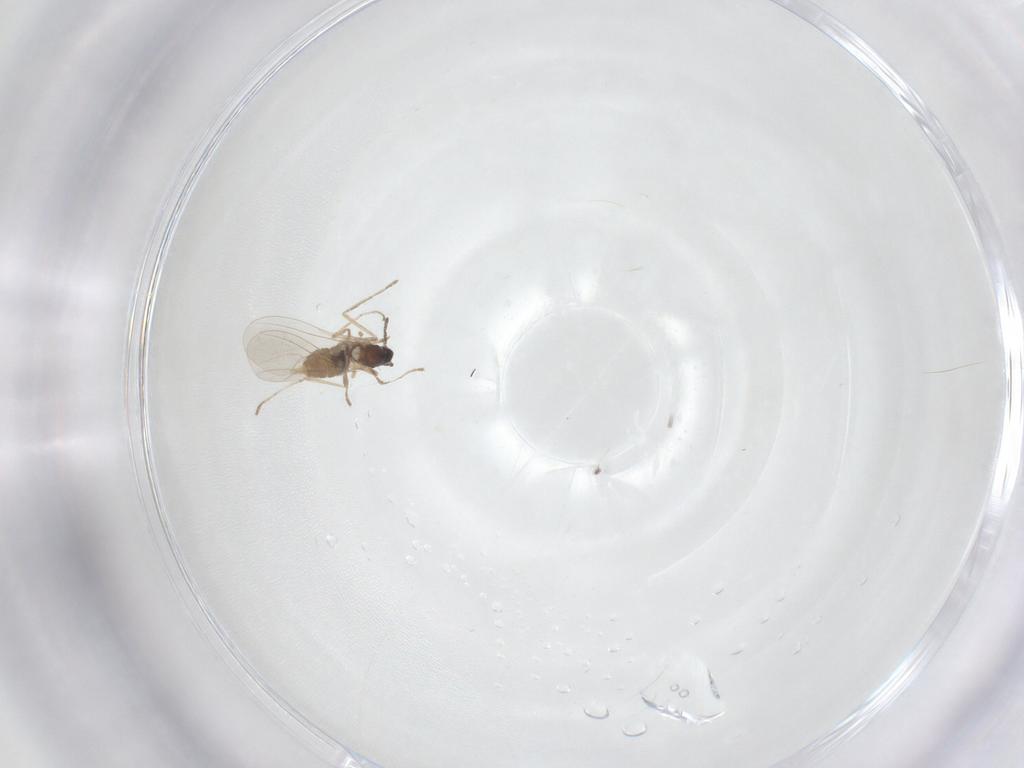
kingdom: Animalia
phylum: Arthropoda
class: Insecta
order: Diptera
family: Cecidomyiidae
